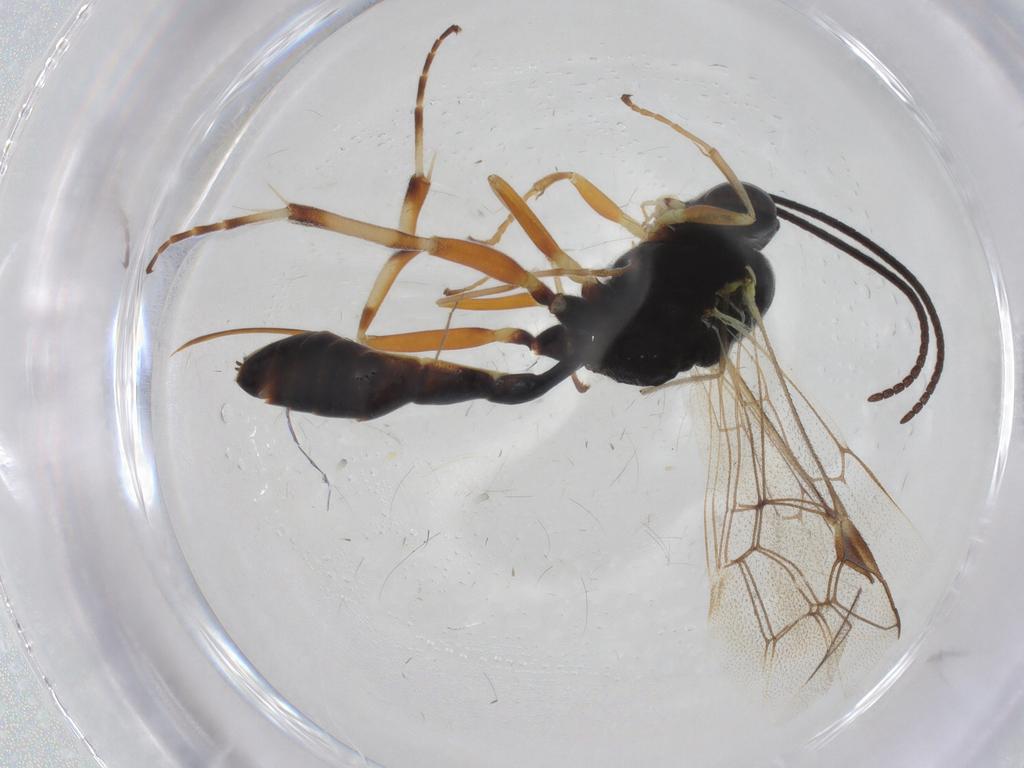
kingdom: Animalia
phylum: Arthropoda
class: Insecta
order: Hymenoptera
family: Ichneumonidae
